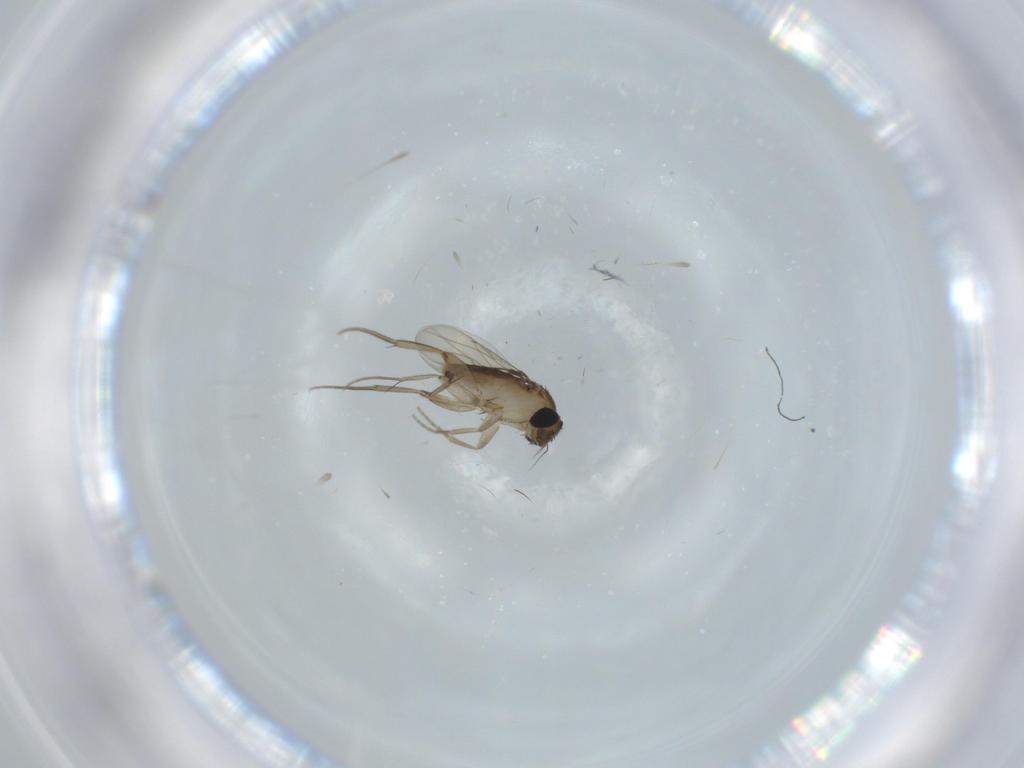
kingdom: Animalia
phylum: Arthropoda
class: Insecta
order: Diptera
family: Phoridae
